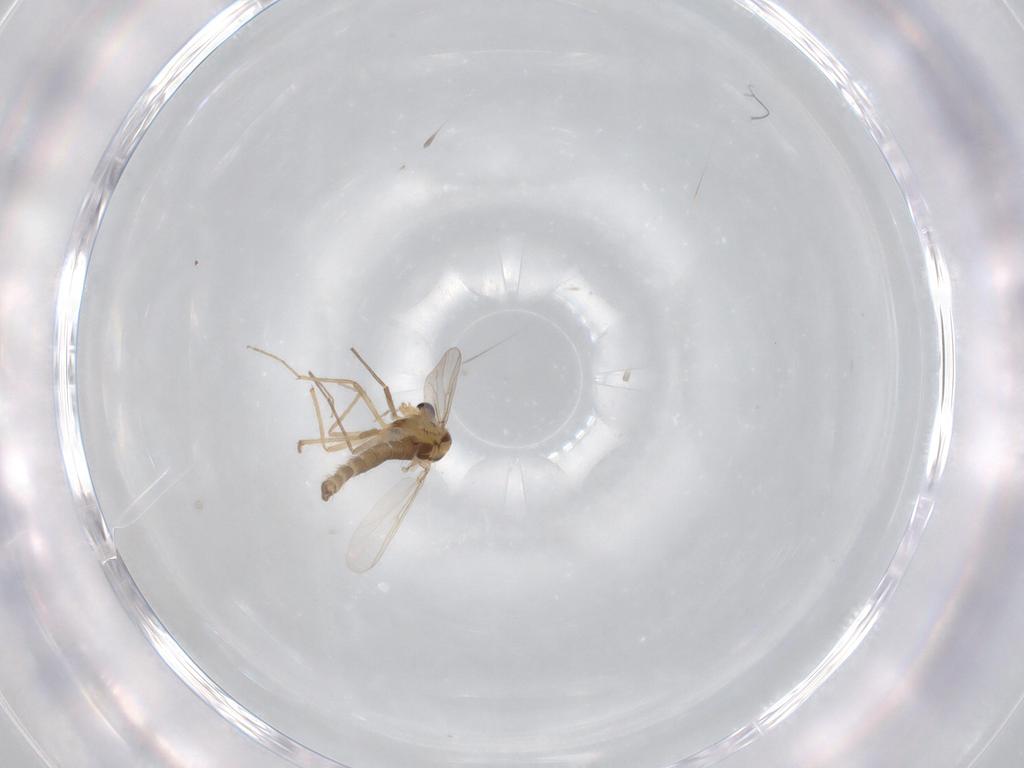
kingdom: Animalia
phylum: Arthropoda
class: Insecta
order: Diptera
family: Chironomidae
